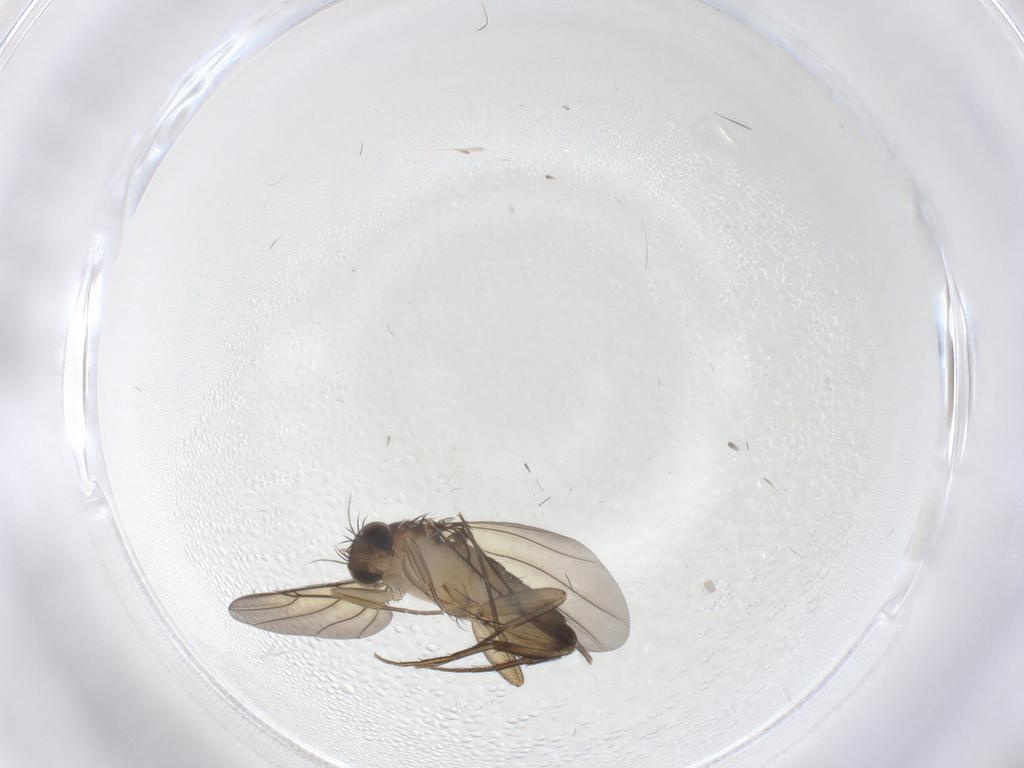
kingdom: Animalia
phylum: Arthropoda
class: Insecta
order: Diptera
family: Phoridae
